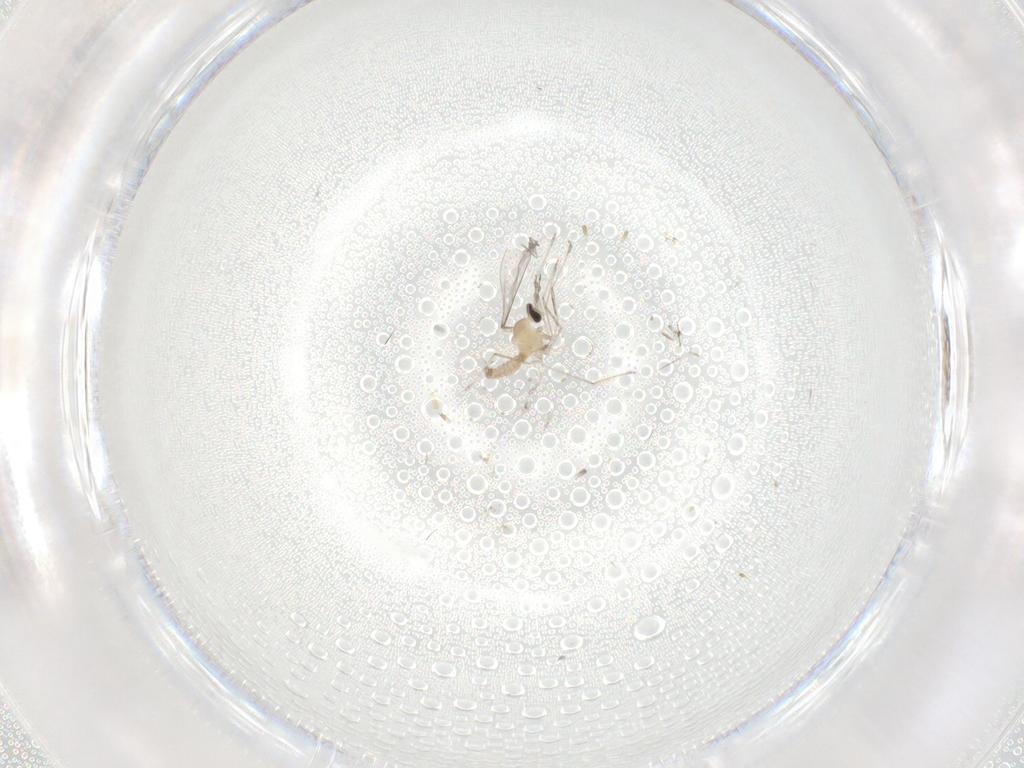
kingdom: Animalia
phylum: Arthropoda
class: Insecta
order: Diptera
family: Cecidomyiidae
